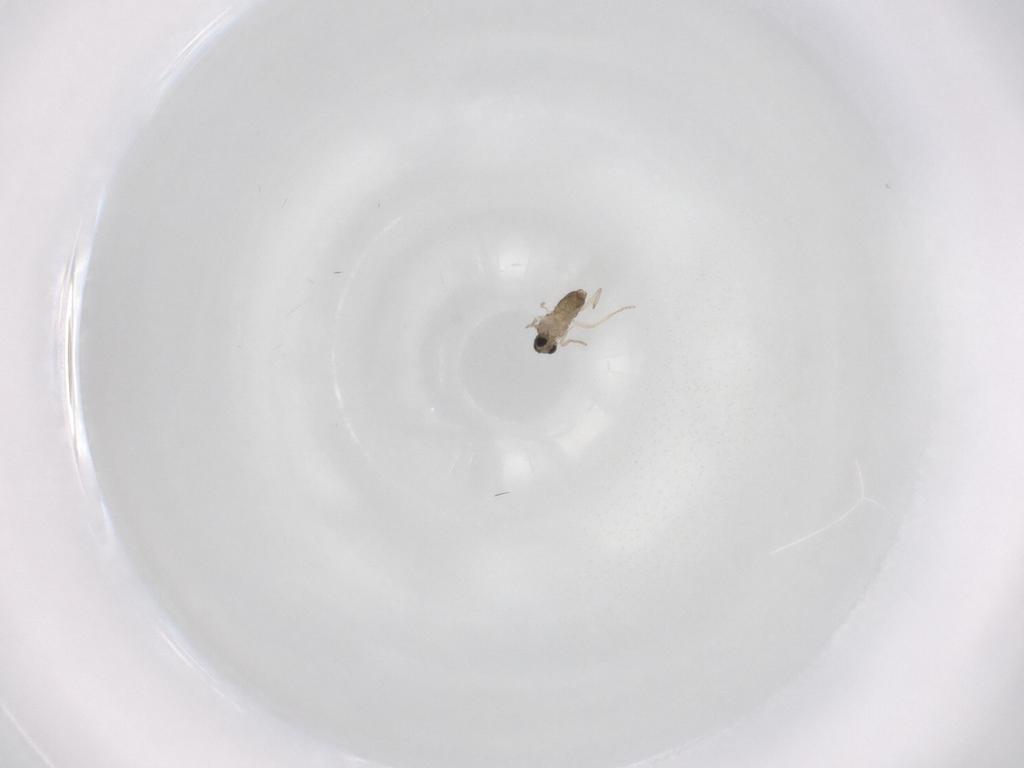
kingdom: Animalia
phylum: Arthropoda
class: Insecta
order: Diptera
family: Cecidomyiidae
